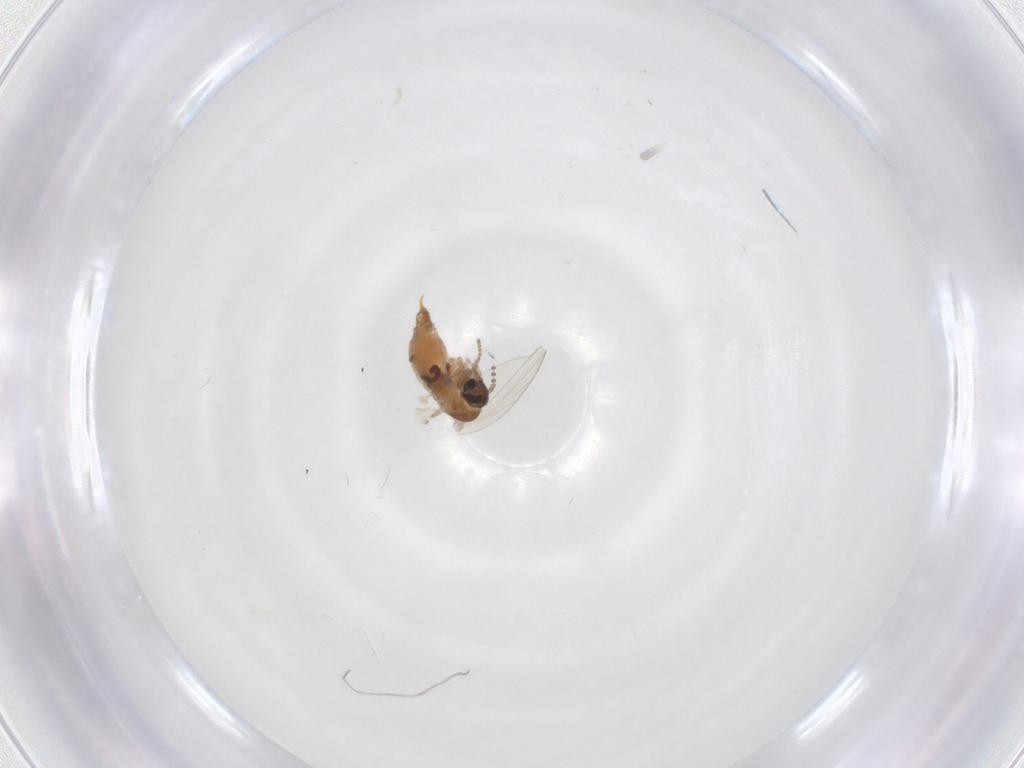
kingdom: Animalia
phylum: Arthropoda
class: Insecta
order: Diptera
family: Psychodidae
